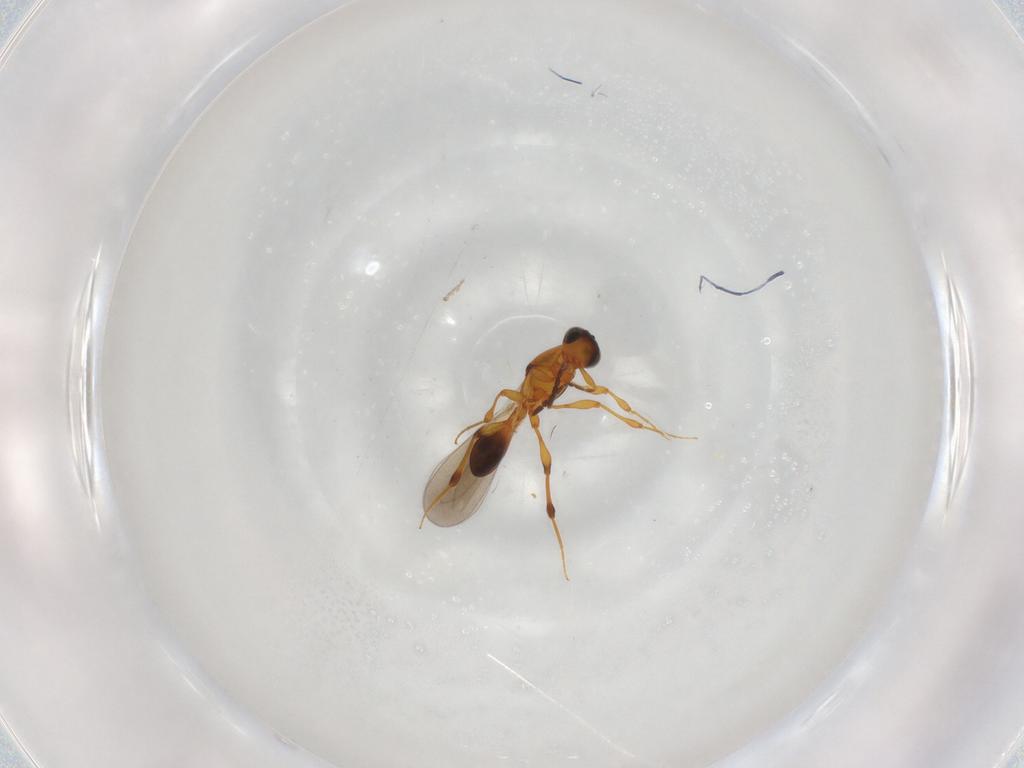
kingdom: Animalia
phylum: Arthropoda
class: Insecta
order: Hymenoptera
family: Platygastridae
